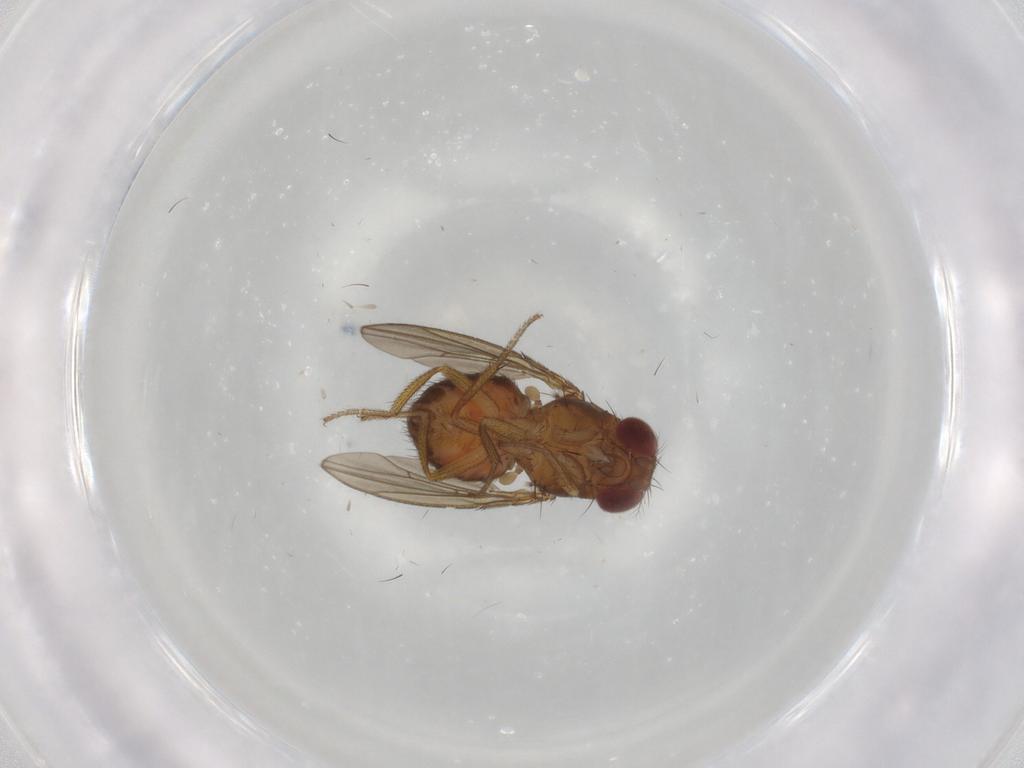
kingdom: Animalia
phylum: Arthropoda
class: Insecta
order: Diptera
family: Drosophilidae
